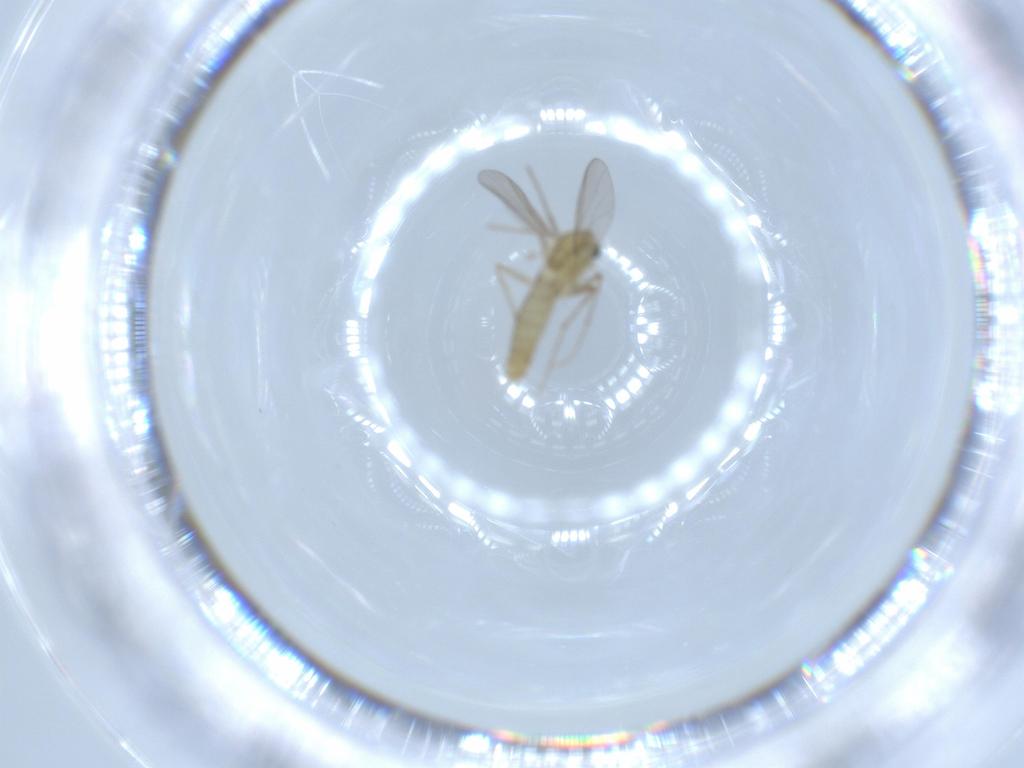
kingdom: Animalia
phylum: Arthropoda
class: Insecta
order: Diptera
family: Chironomidae
